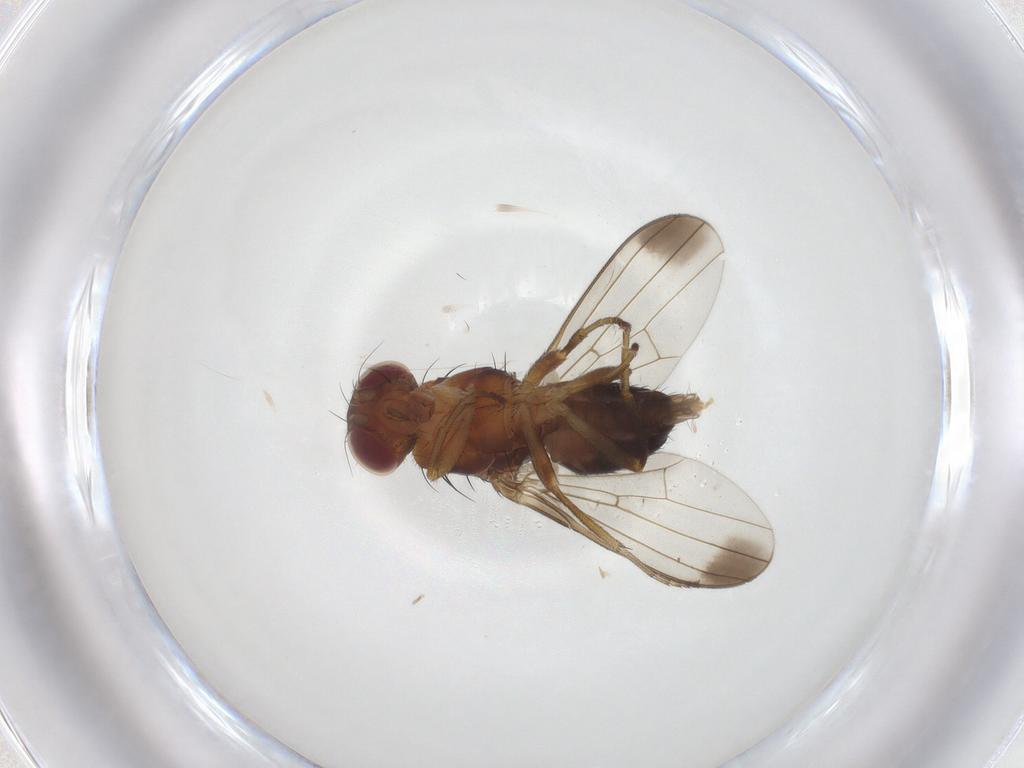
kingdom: Animalia
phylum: Arthropoda
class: Insecta
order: Diptera
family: Piophilidae
